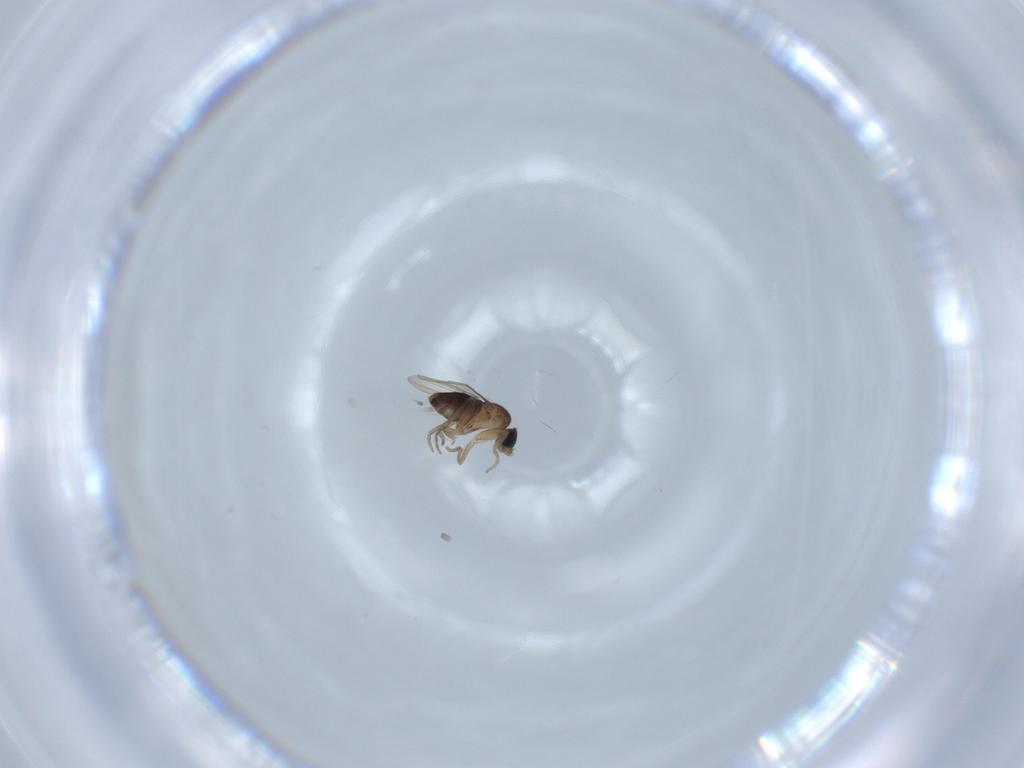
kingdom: Animalia
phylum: Arthropoda
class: Insecta
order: Diptera
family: Phoridae
